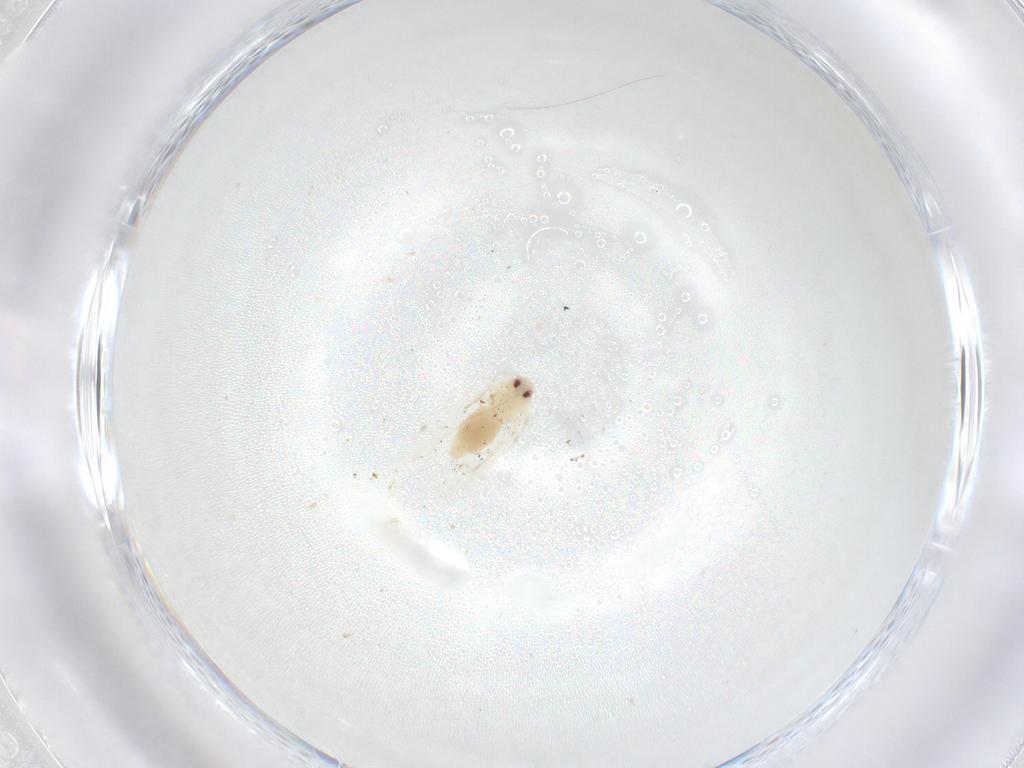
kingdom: Animalia
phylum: Arthropoda
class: Insecta
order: Hemiptera
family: Aleyrodidae
